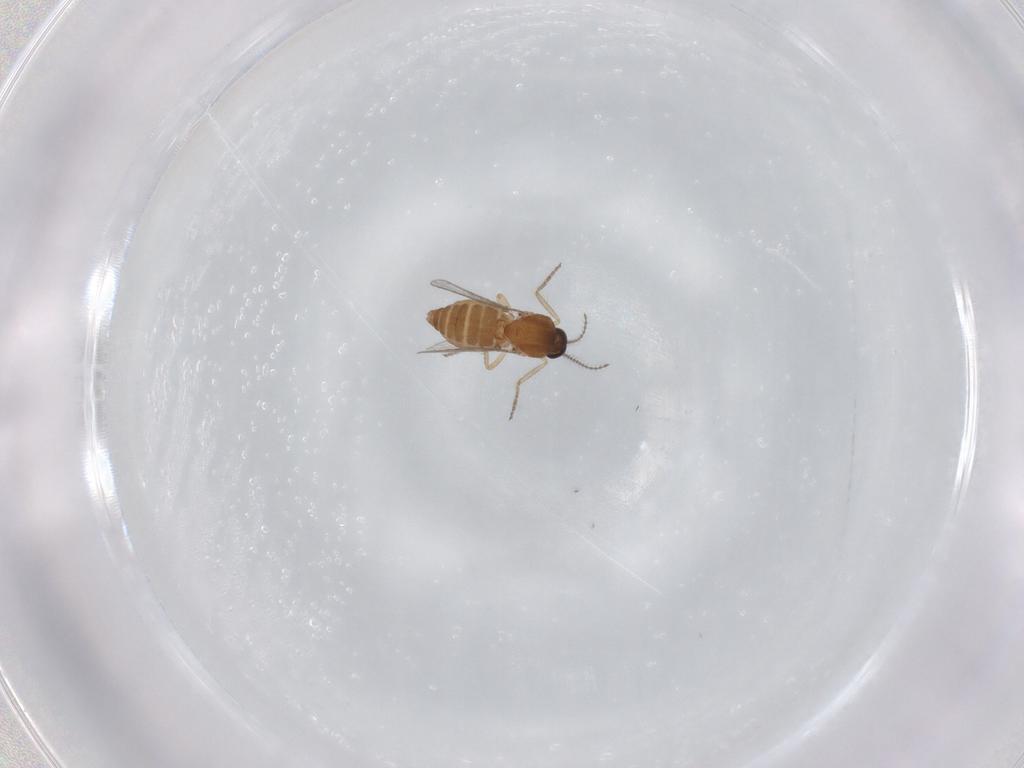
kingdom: Animalia
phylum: Arthropoda
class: Insecta
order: Diptera
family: Ceratopogonidae
